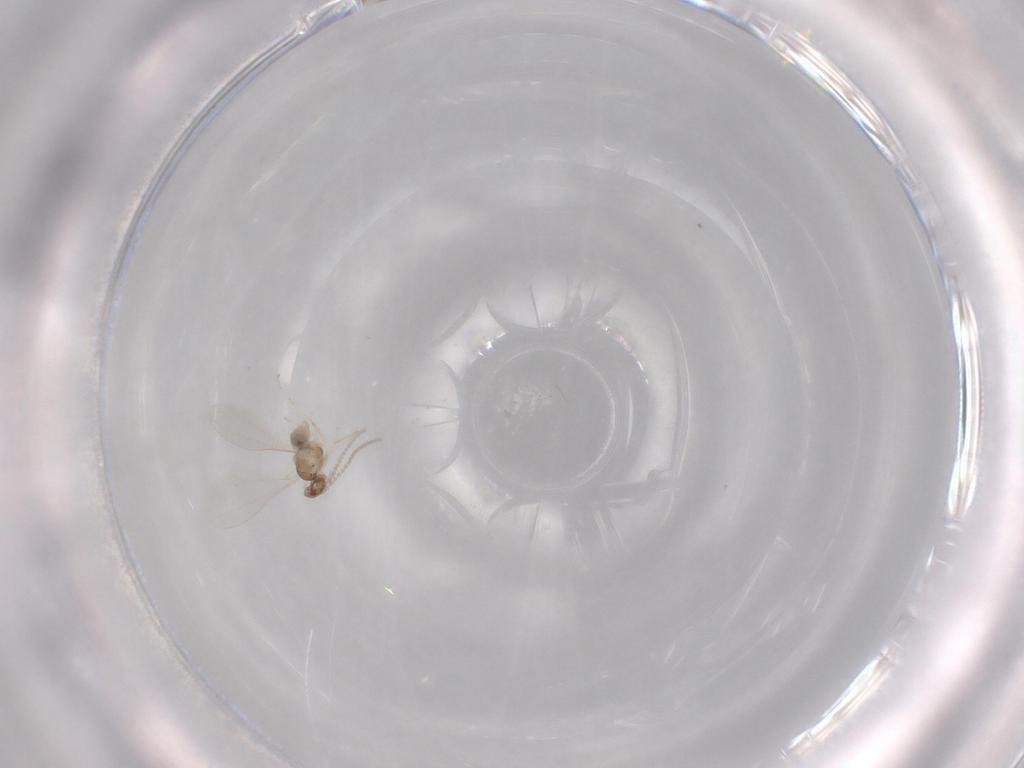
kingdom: Animalia
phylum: Arthropoda
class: Insecta
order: Diptera
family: Cecidomyiidae
